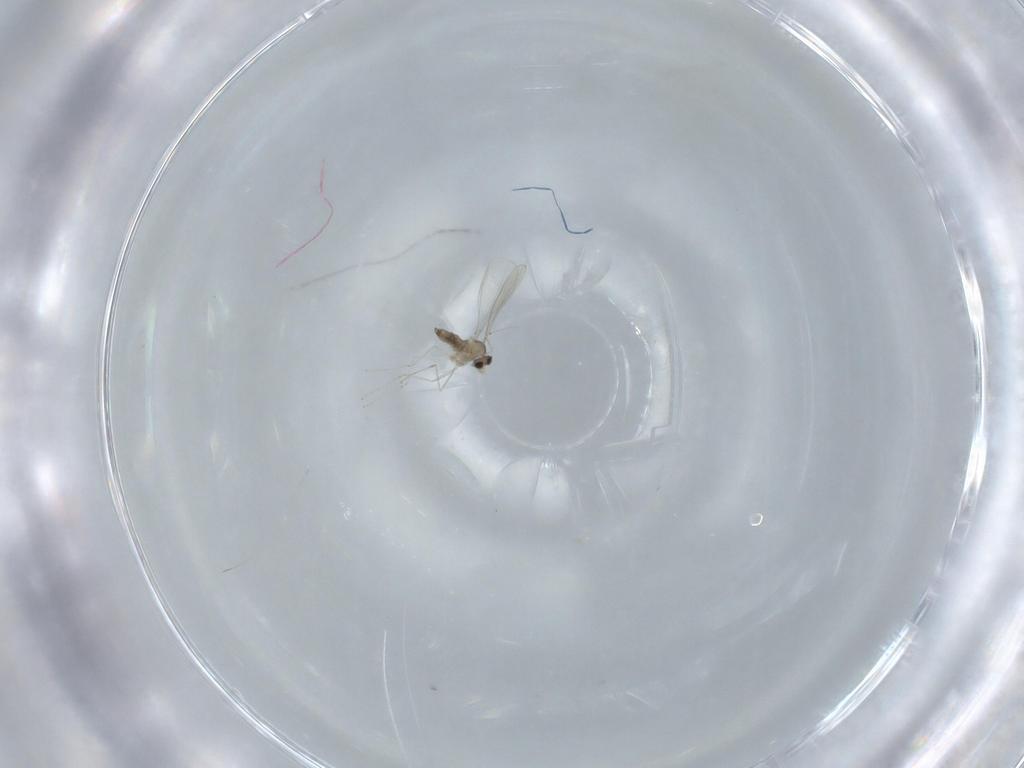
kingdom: Animalia
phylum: Arthropoda
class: Insecta
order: Diptera
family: Cecidomyiidae
